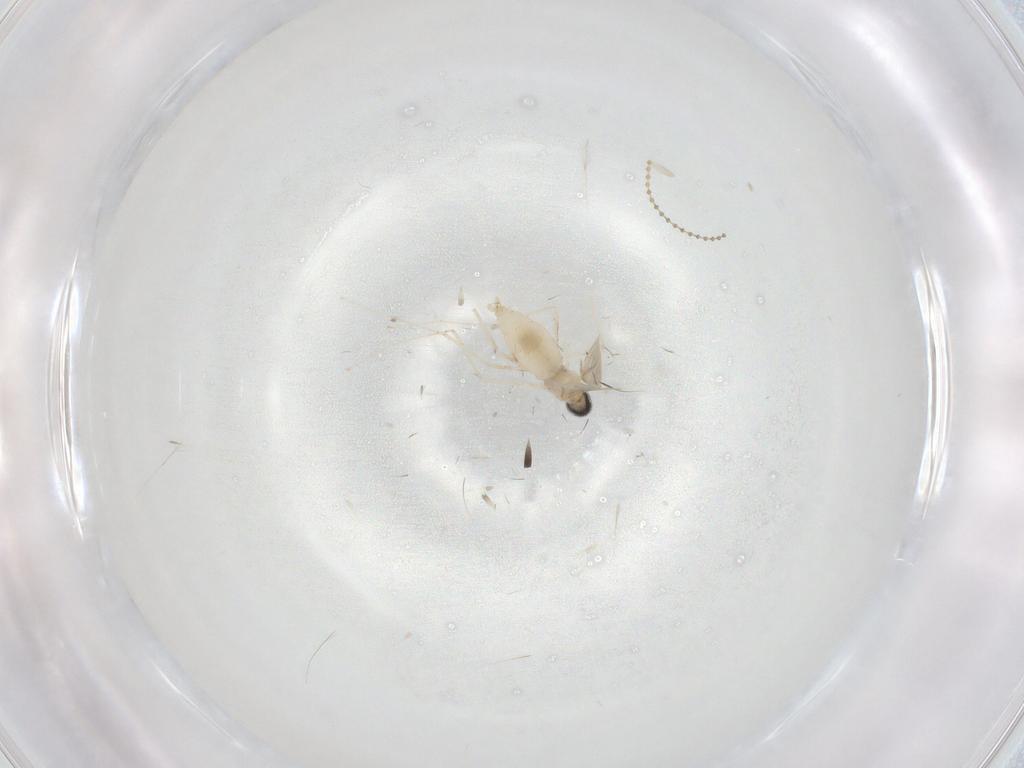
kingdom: Animalia
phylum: Arthropoda
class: Insecta
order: Diptera
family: Cecidomyiidae
